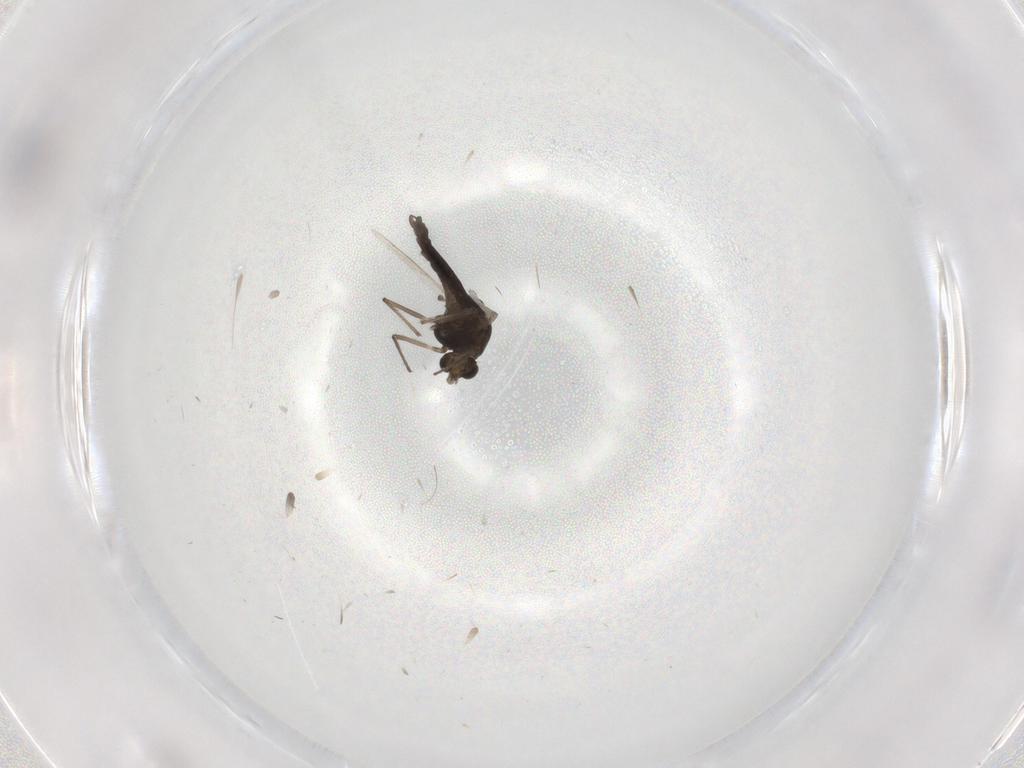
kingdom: Animalia
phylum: Arthropoda
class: Insecta
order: Diptera
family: Chironomidae
